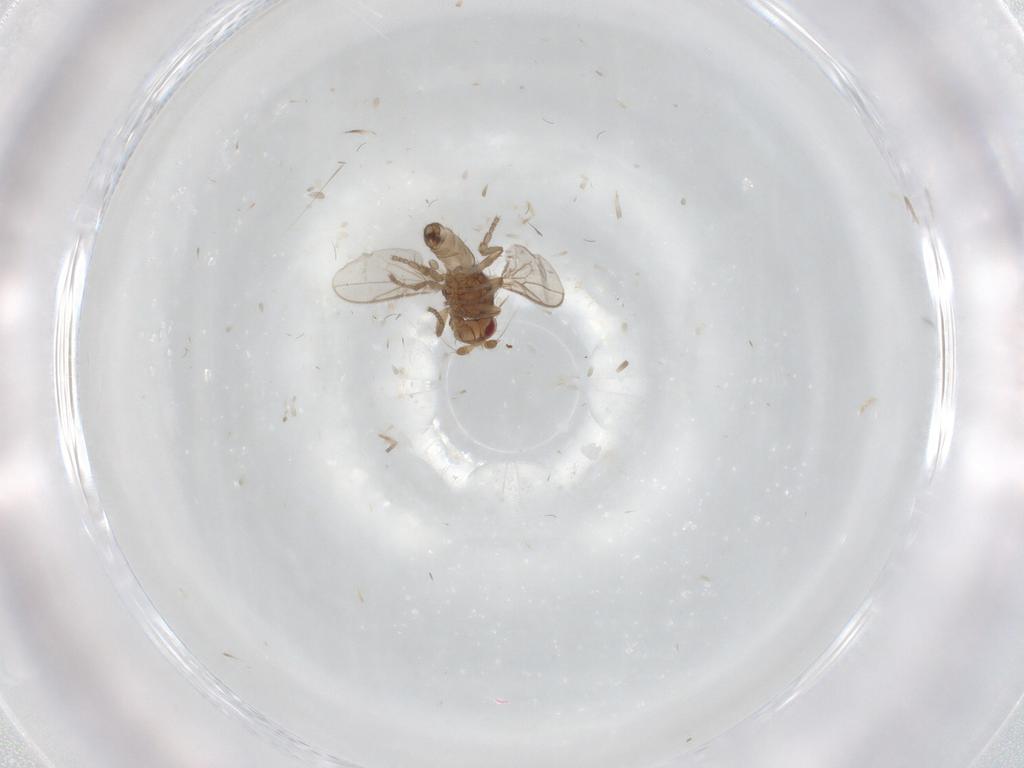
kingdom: Animalia
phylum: Arthropoda
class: Insecta
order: Diptera
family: Sphaeroceridae
